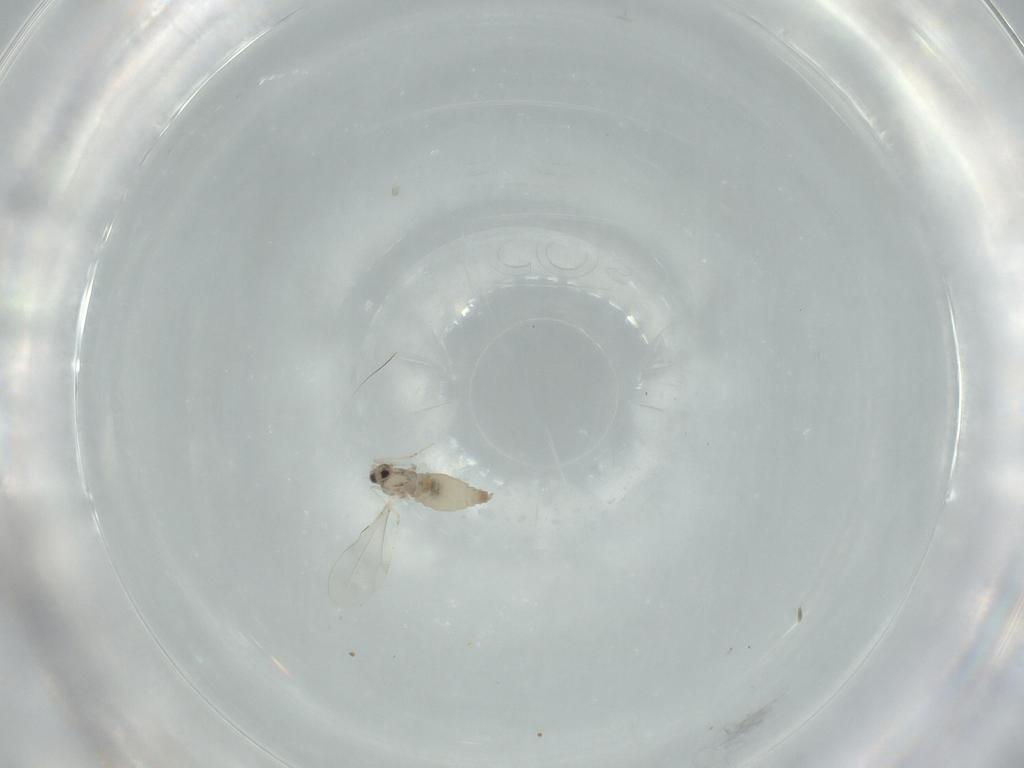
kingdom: Animalia
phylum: Arthropoda
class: Insecta
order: Diptera
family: Cecidomyiidae
